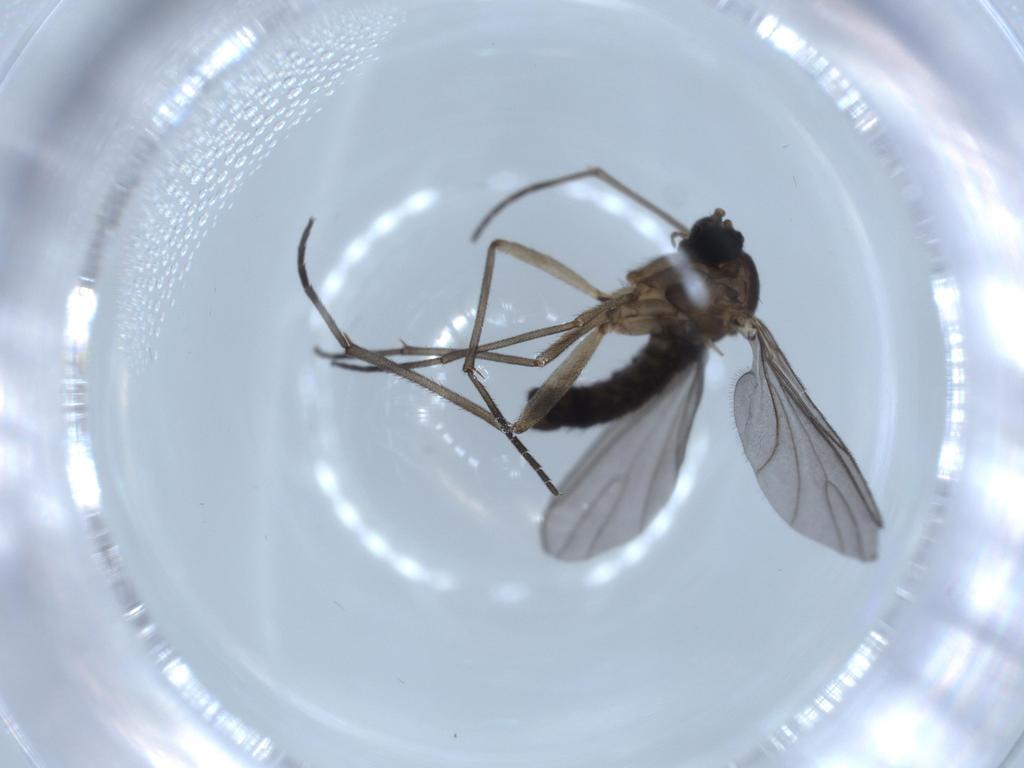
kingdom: Animalia
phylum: Arthropoda
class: Insecta
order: Diptera
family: Sciaridae
